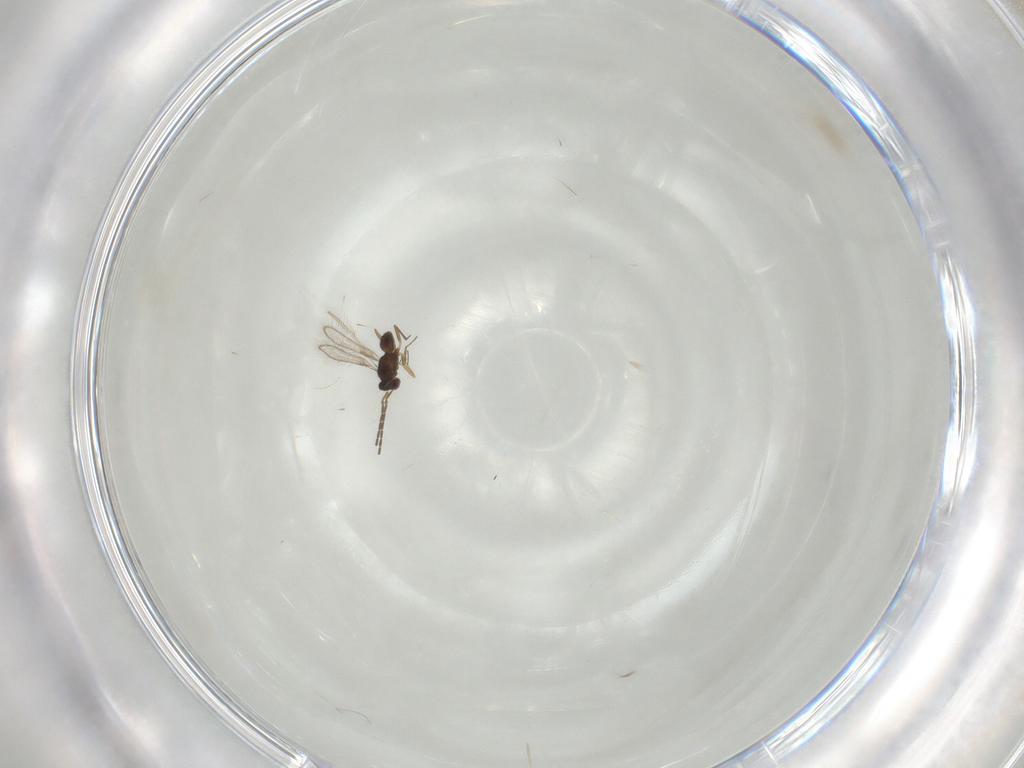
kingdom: Animalia
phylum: Arthropoda
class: Insecta
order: Hymenoptera
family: Mymaridae
